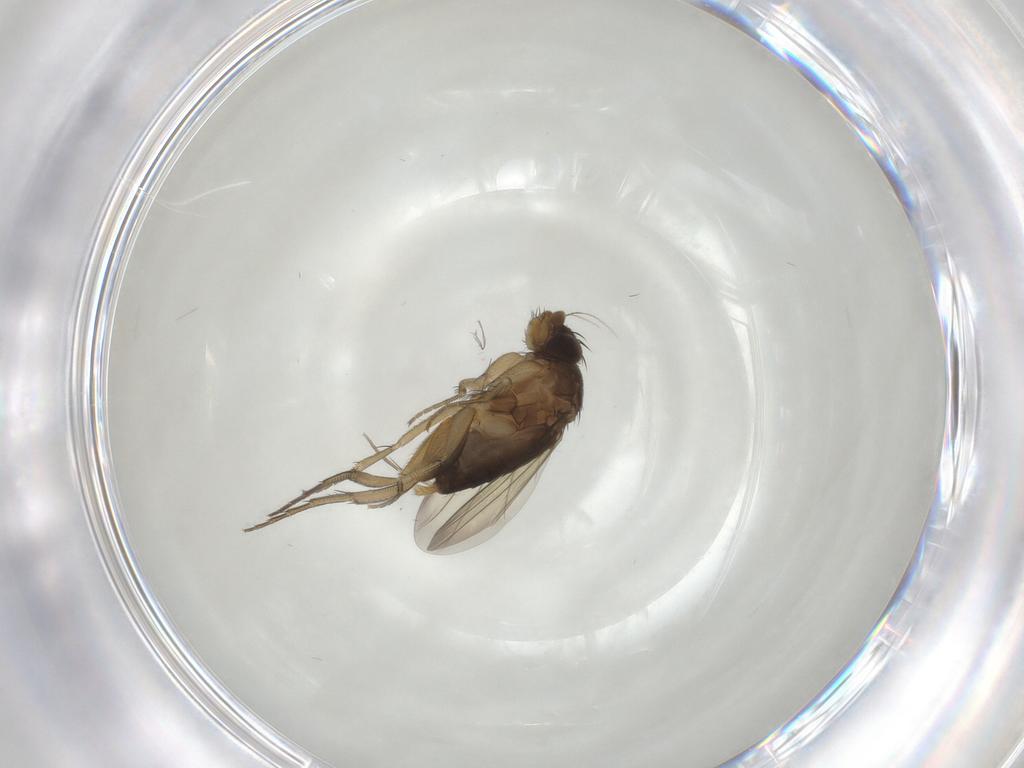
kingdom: Animalia
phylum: Arthropoda
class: Insecta
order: Diptera
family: Phoridae
